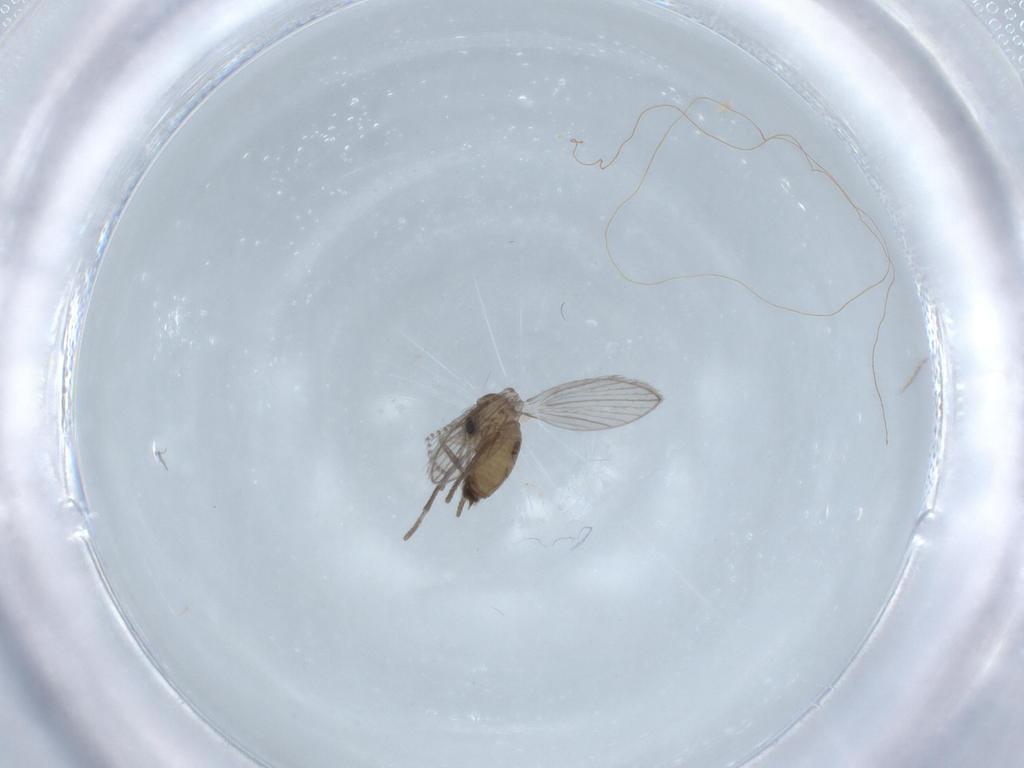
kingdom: Animalia
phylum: Arthropoda
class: Insecta
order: Diptera
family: Psychodidae
